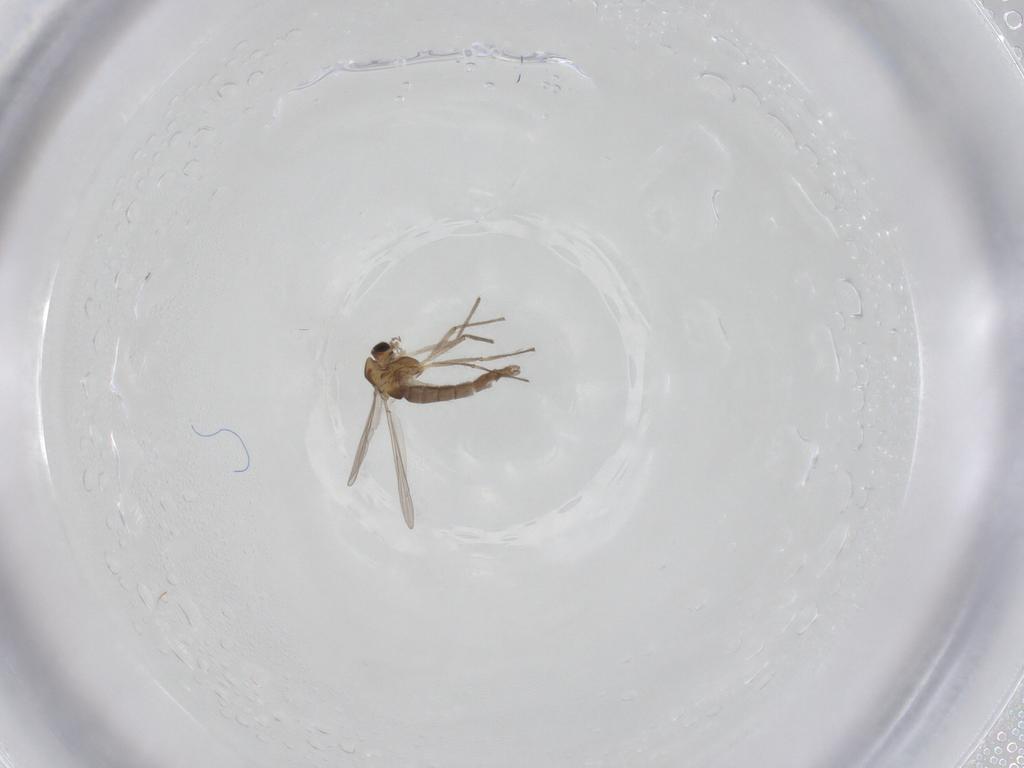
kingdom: Animalia
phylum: Arthropoda
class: Insecta
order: Diptera
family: Chironomidae
